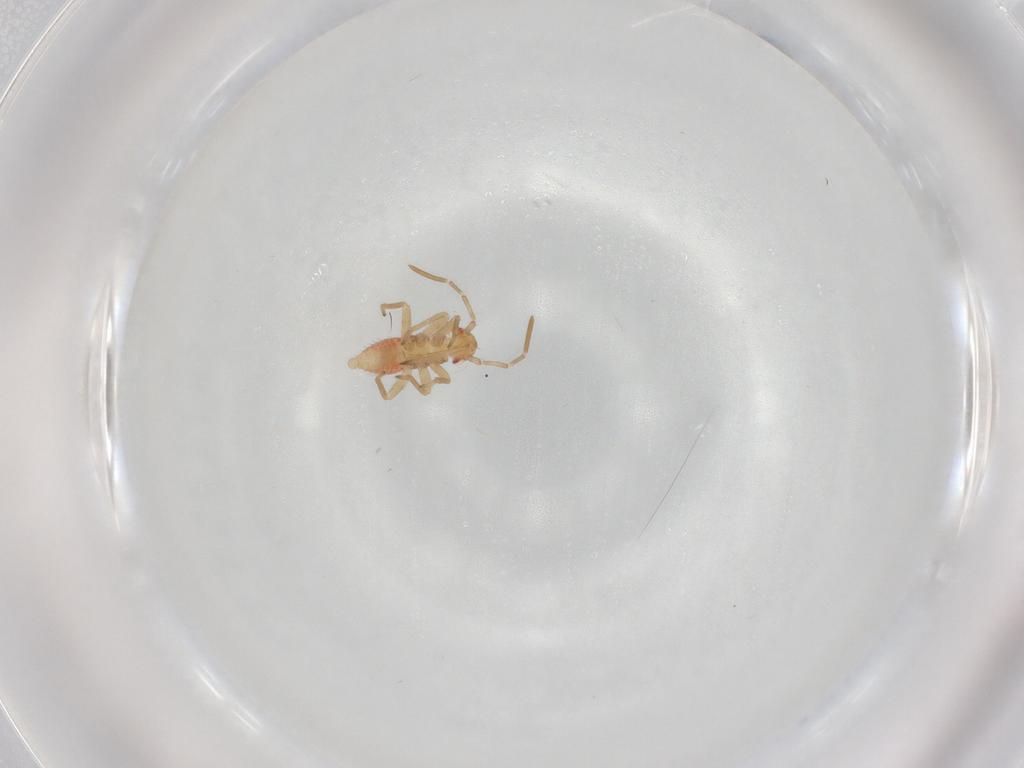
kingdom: Animalia
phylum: Arthropoda
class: Insecta
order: Hemiptera
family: Miridae
